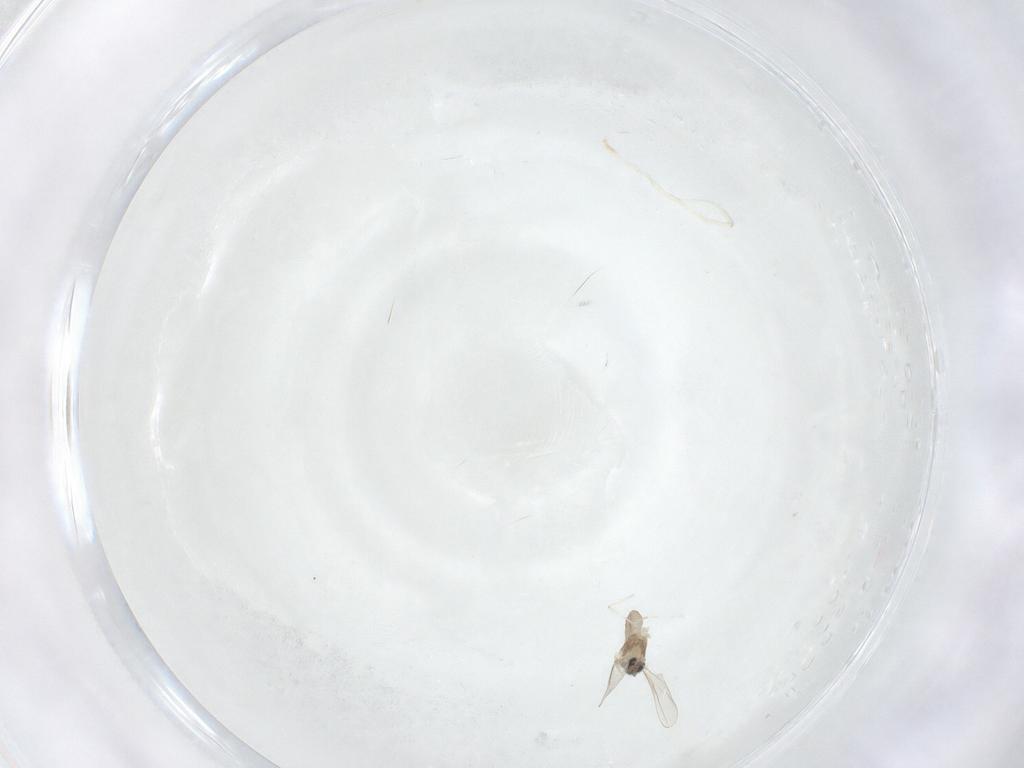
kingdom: Animalia
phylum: Arthropoda
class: Insecta
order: Diptera
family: Cecidomyiidae
